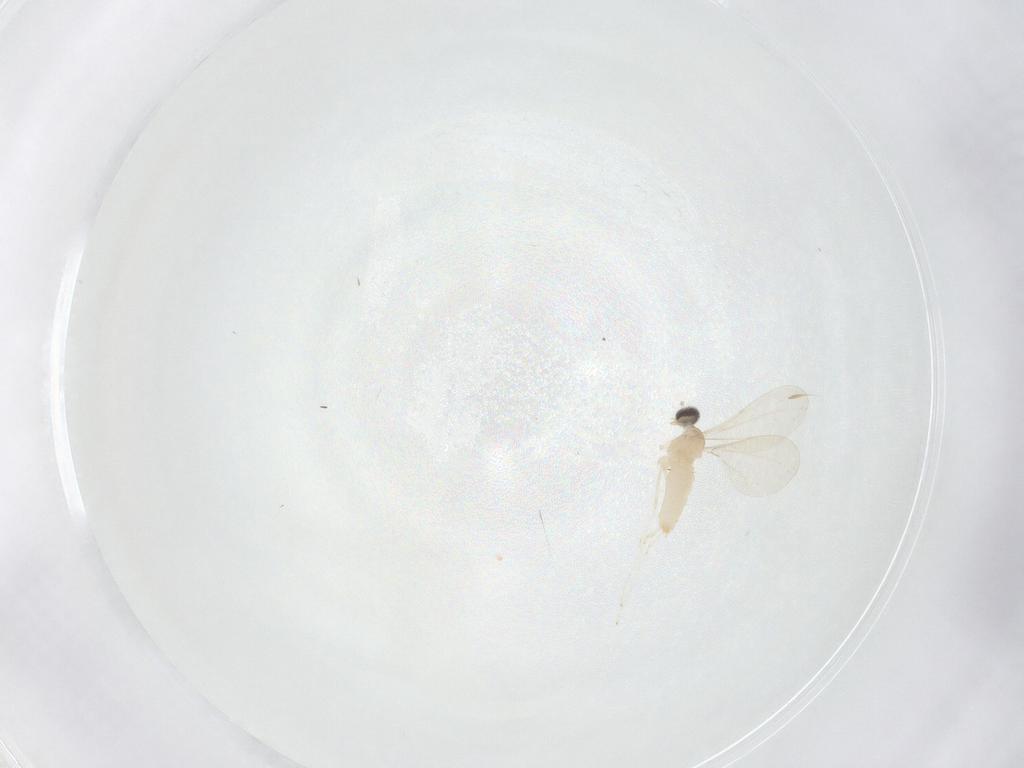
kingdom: Animalia
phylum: Arthropoda
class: Insecta
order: Diptera
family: Cecidomyiidae
